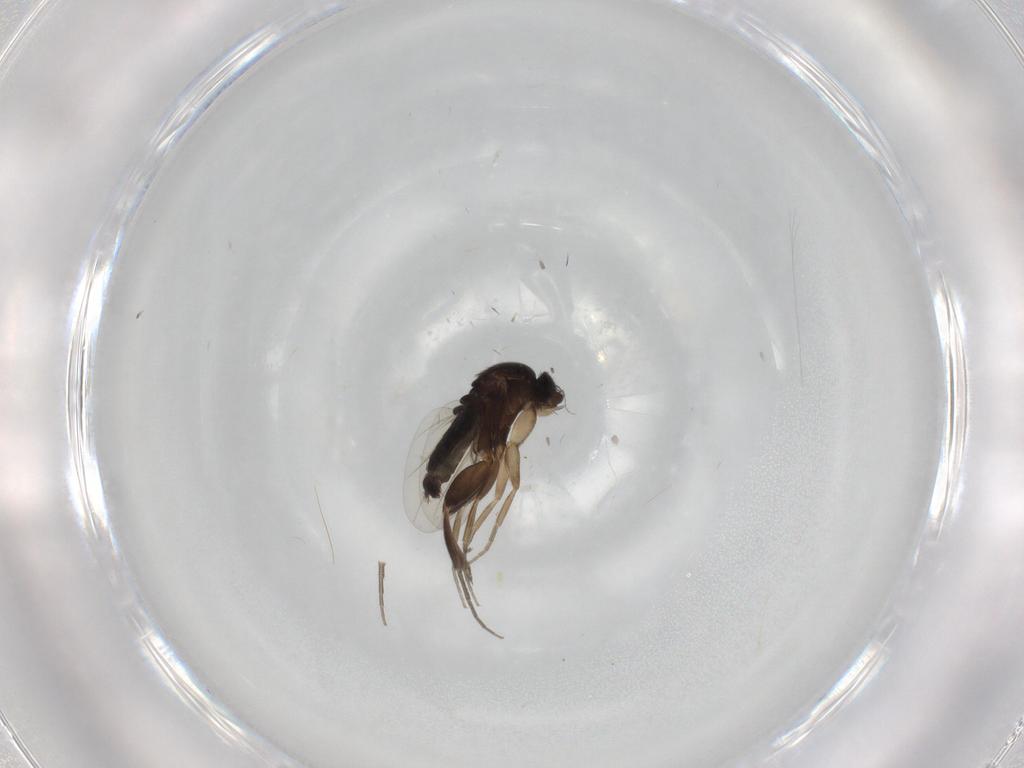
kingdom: Animalia
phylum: Arthropoda
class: Insecta
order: Diptera
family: Phoridae
